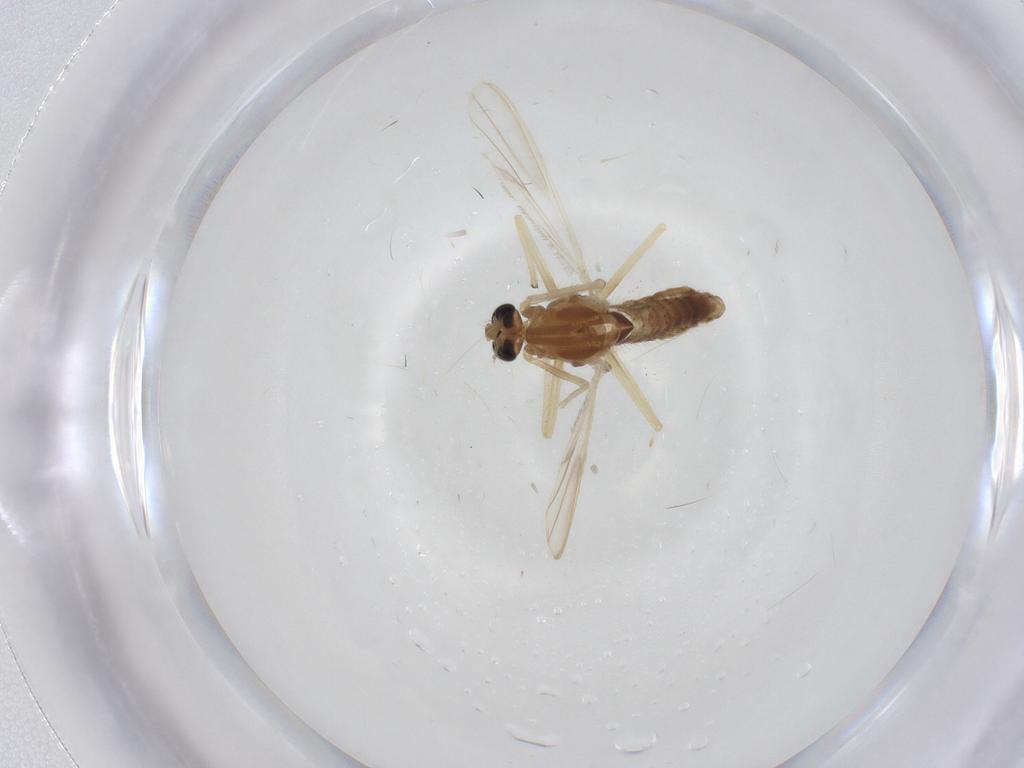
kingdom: Animalia
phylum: Arthropoda
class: Insecta
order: Diptera
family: Chironomidae
